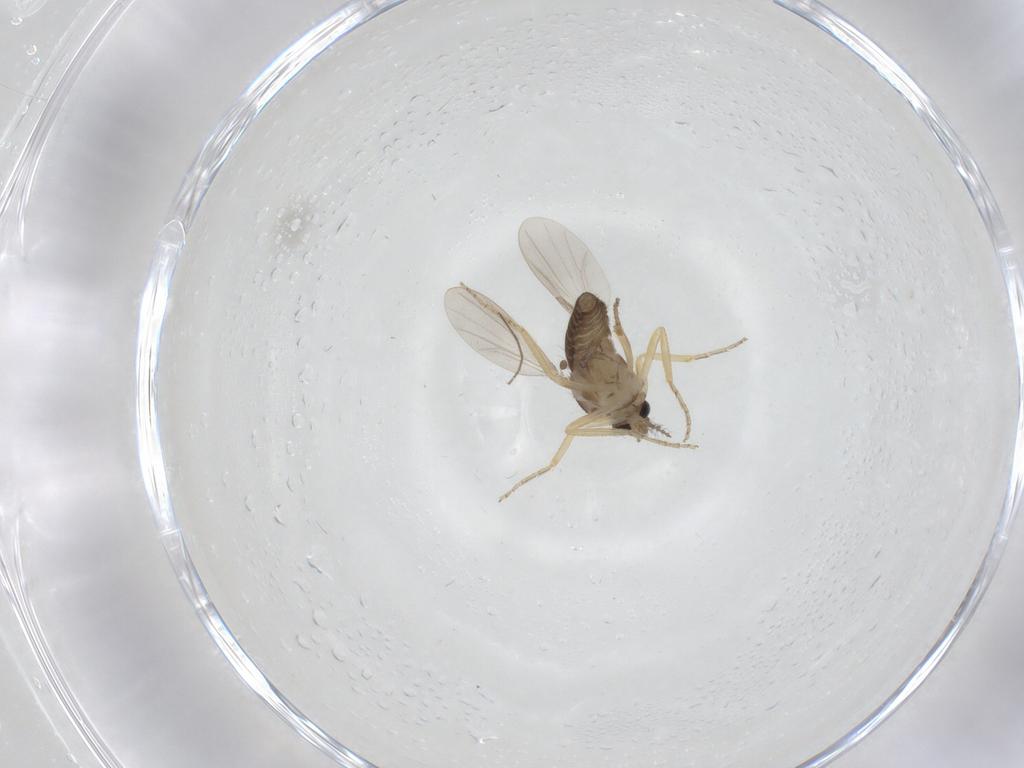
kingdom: Animalia
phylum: Arthropoda
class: Insecta
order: Diptera
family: Ceratopogonidae
